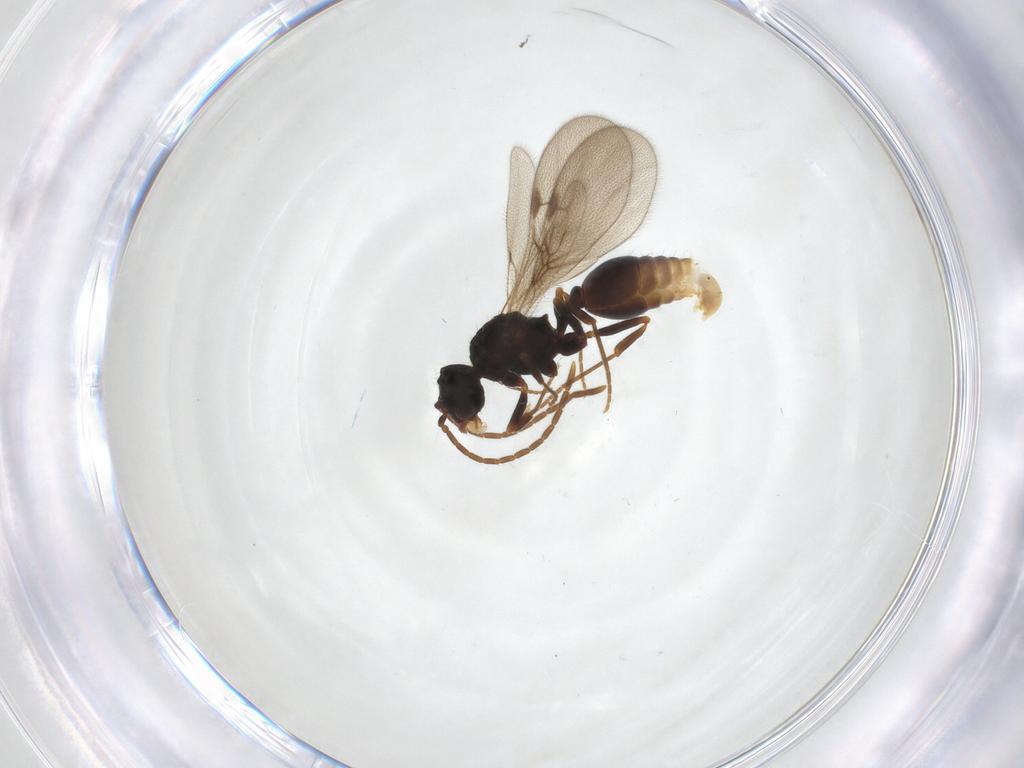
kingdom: Animalia
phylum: Arthropoda
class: Insecta
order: Hymenoptera
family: Formicidae
